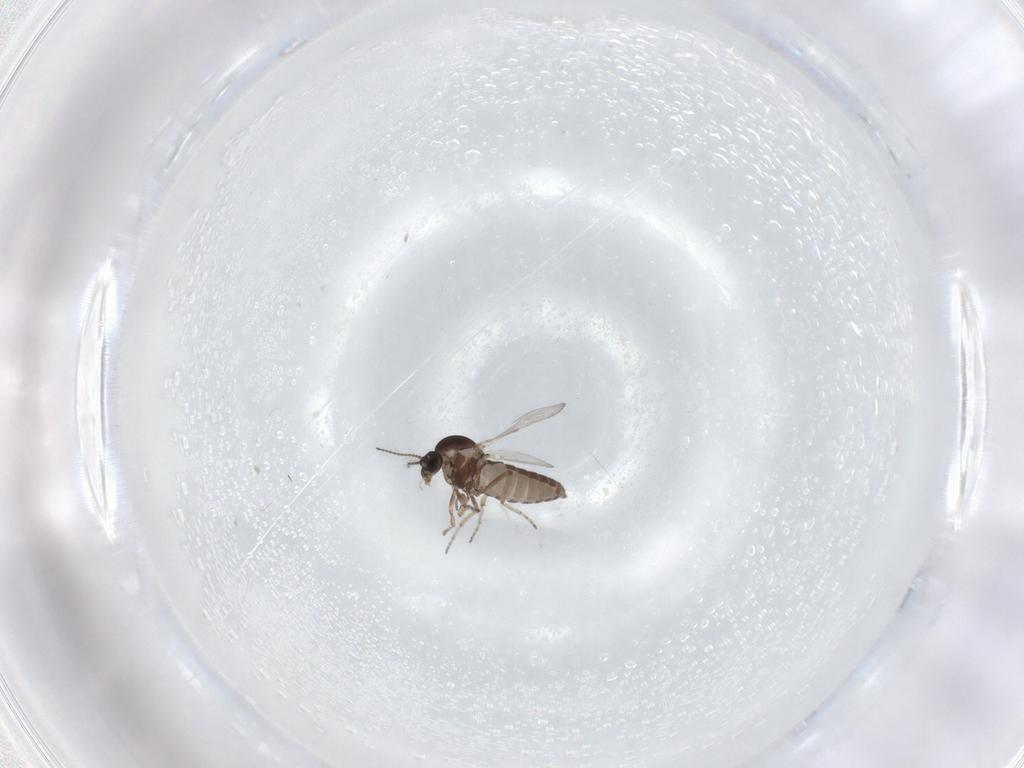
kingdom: Animalia
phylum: Arthropoda
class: Insecta
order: Diptera
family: Ceratopogonidae
